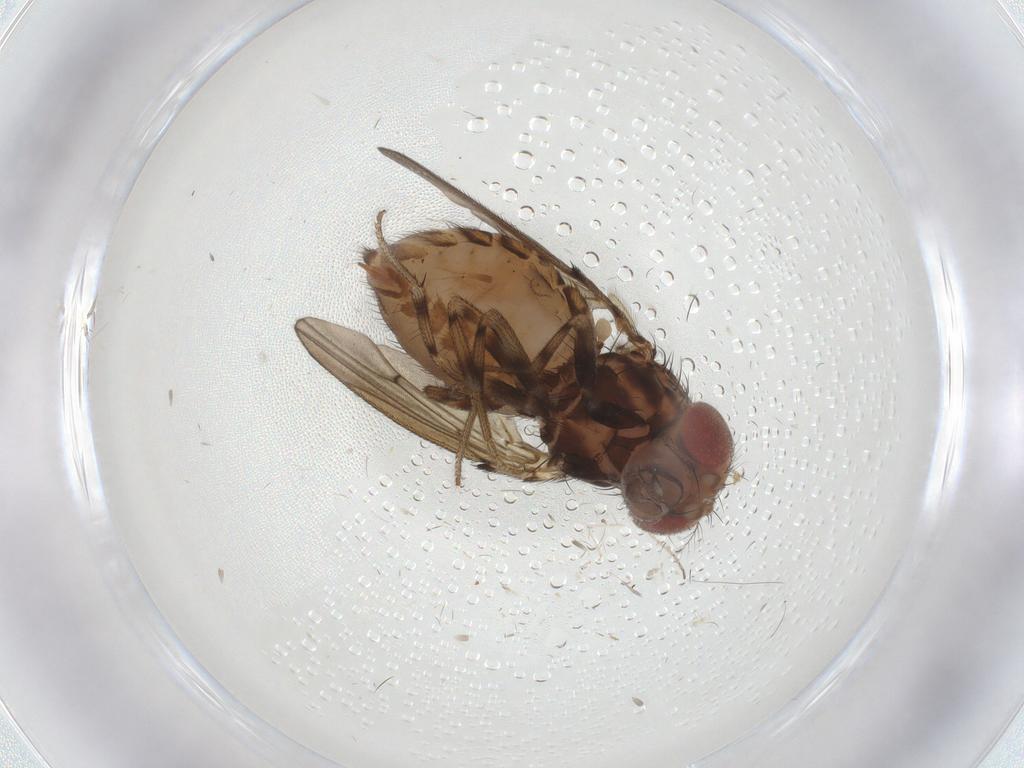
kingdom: Animalia
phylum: Arthropoda
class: Insecta
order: Diptera
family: Drosophilidae
